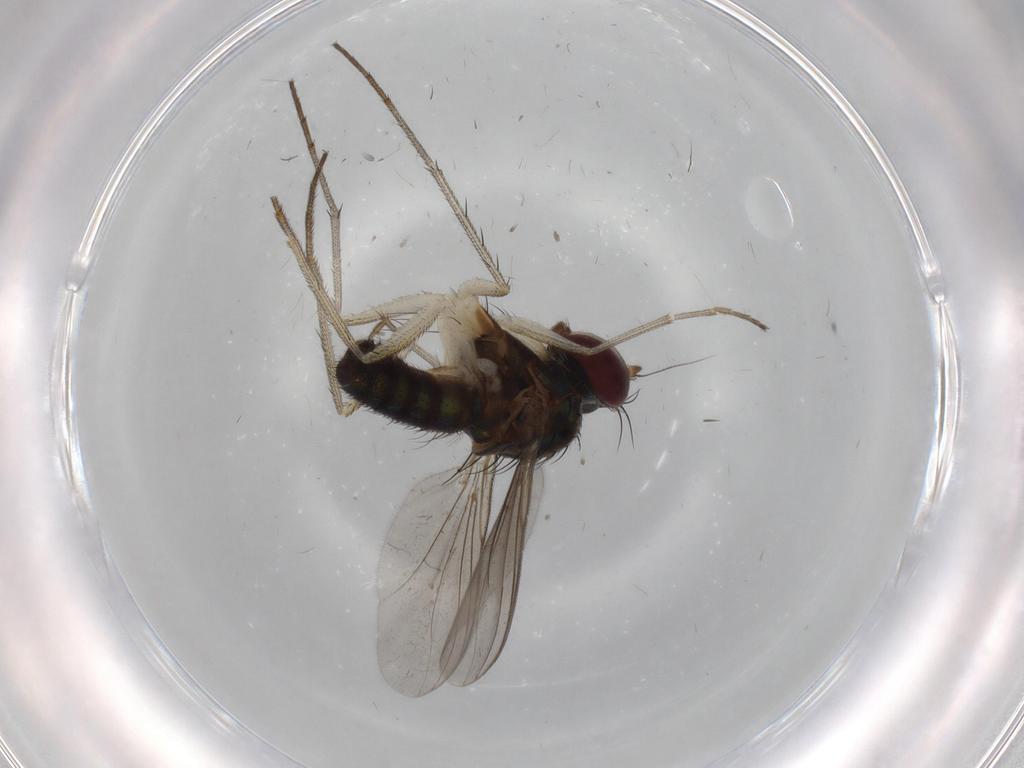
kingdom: Animalia
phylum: Arthropoda
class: Insecta
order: Diptera
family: Dolichopodidae
